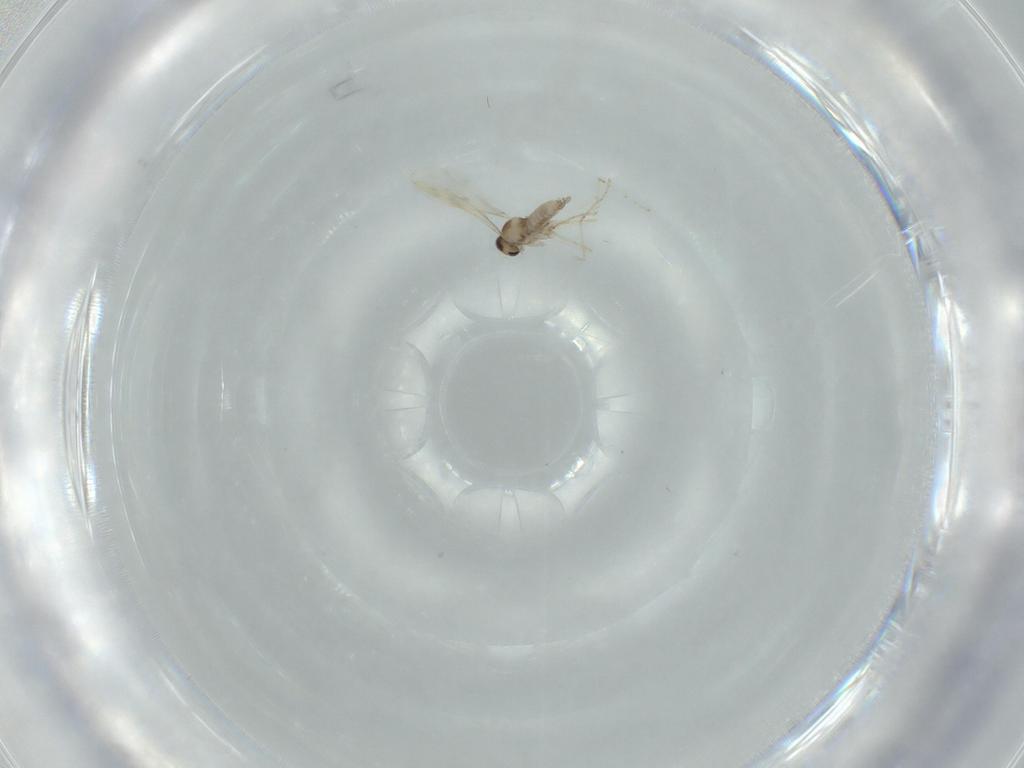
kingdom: Animalia
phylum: Arthropoda
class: Insecta
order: Diptera
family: Cecidomyiidae
